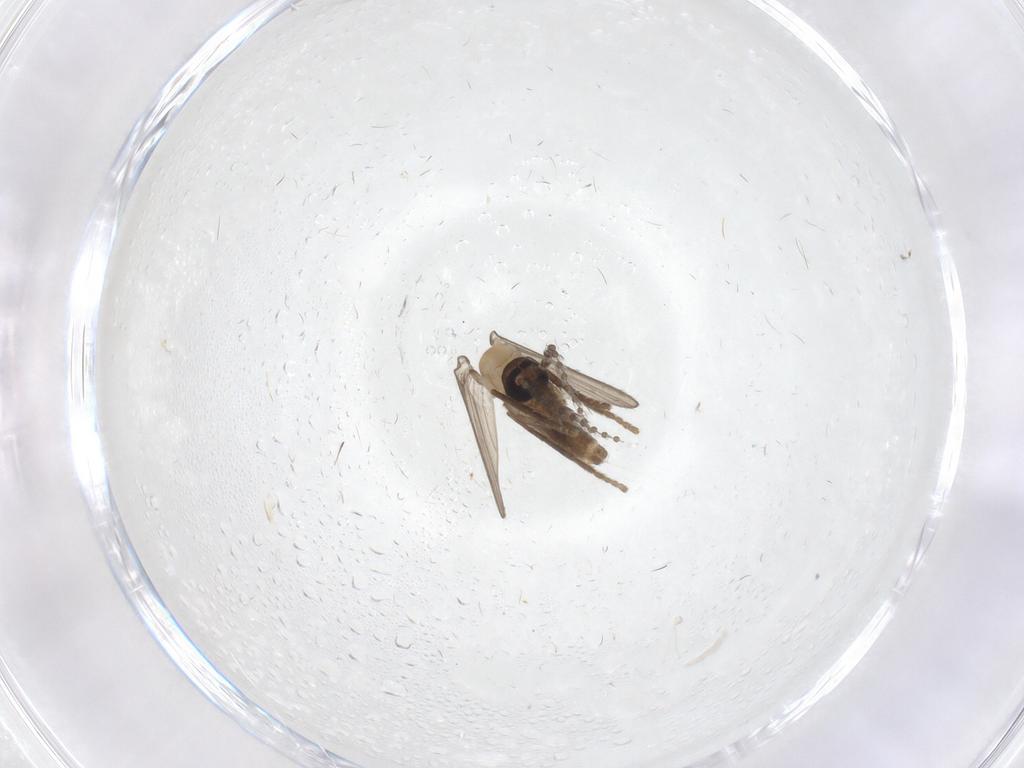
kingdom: Animalia
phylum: Arthropoda
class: Insecta
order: Diptera
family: Psychodidae
